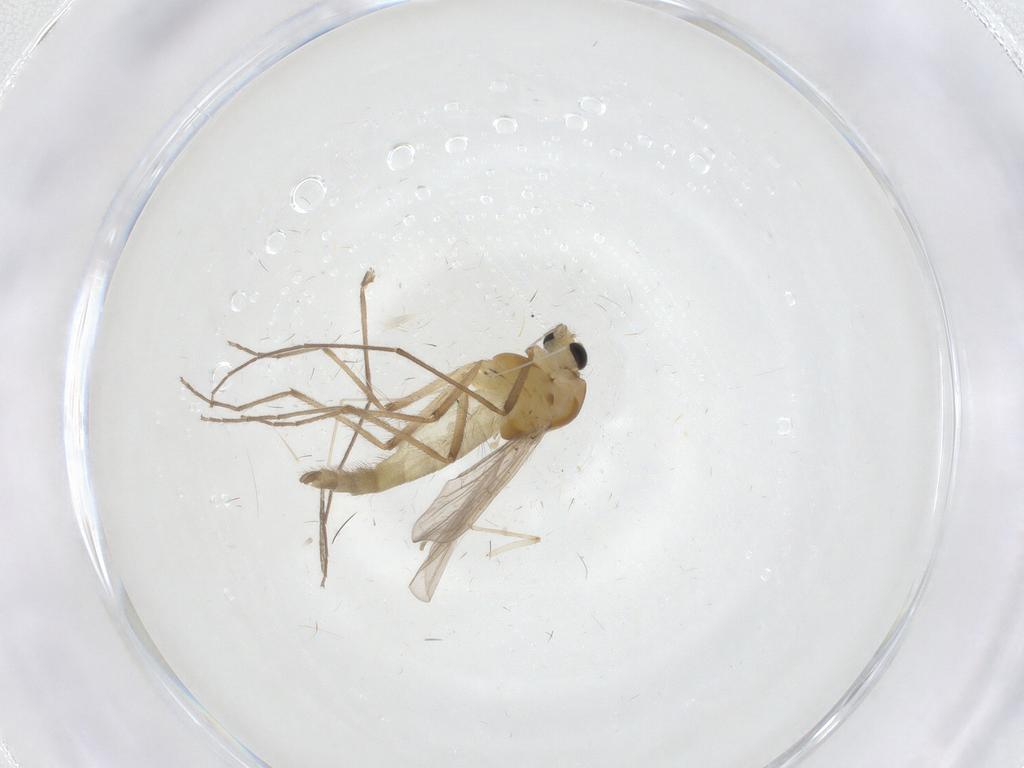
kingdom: Animalia
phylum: Arthropoda
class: Insecta
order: Diptera
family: Chironomidae
